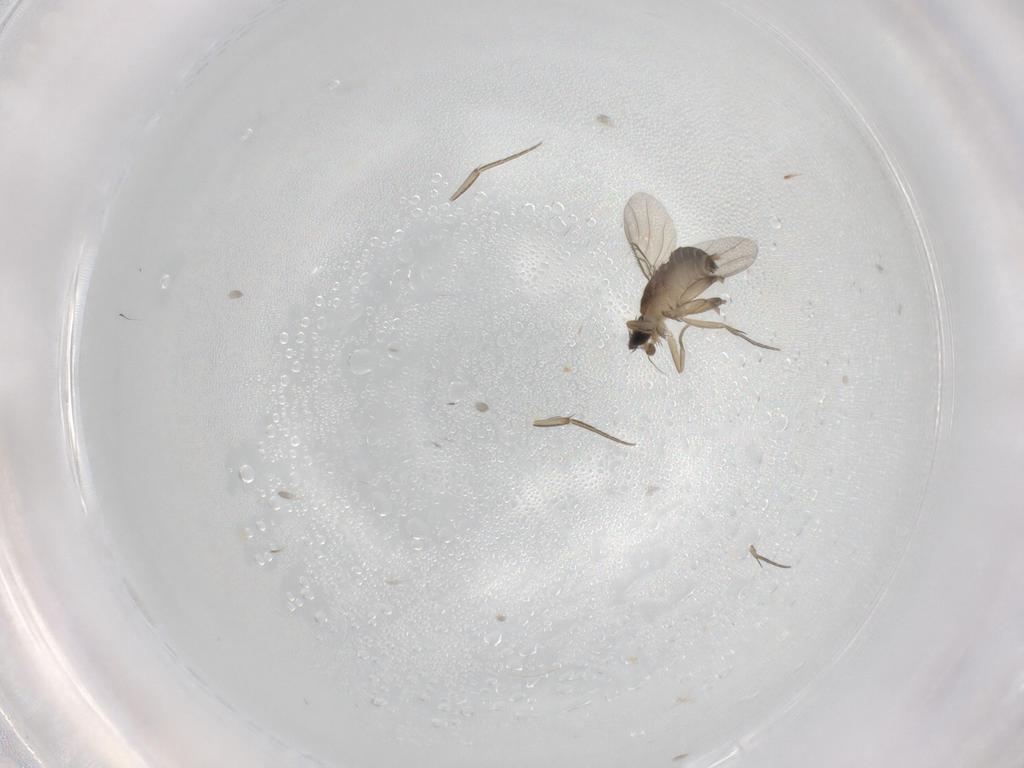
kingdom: Animalia
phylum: Arthropoda
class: Insecta
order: Diptera
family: Phoridae
